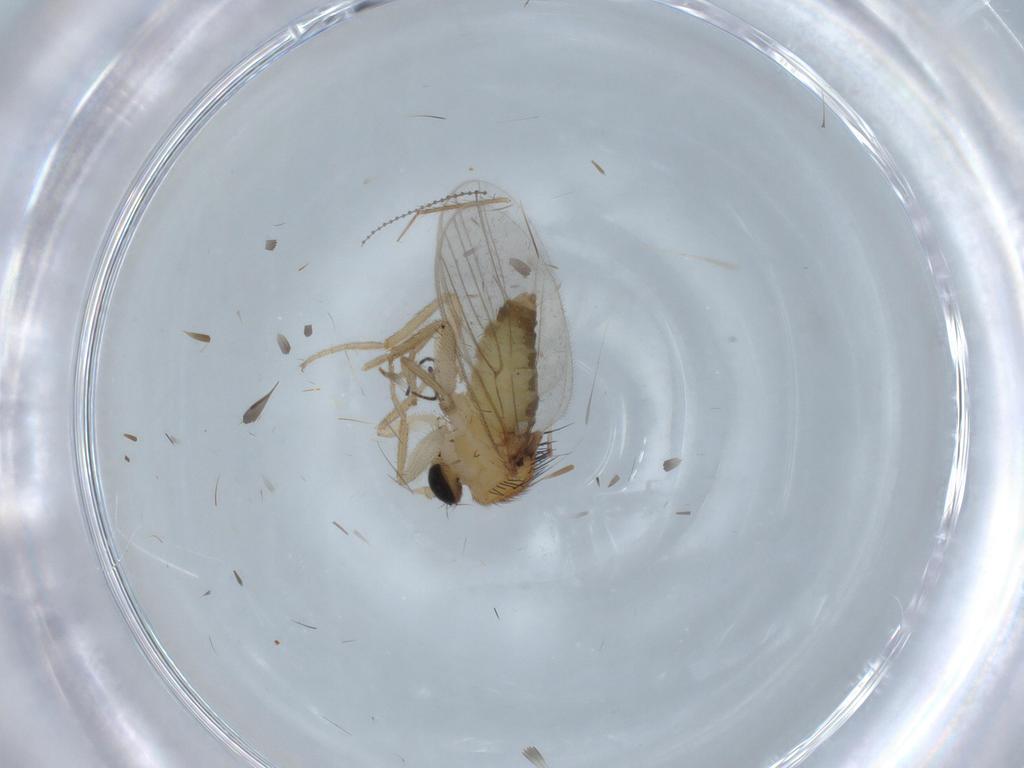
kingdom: Animalia
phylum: Arthropoda
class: Insecta
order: Diptera
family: Hybotidae
